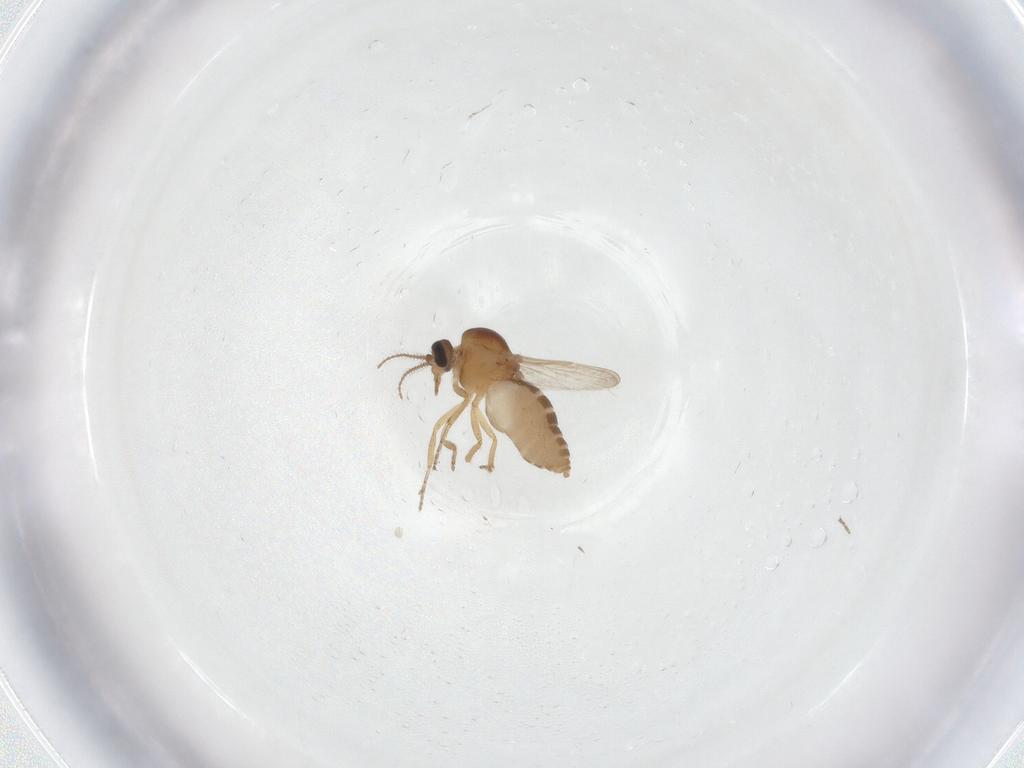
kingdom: Animalia
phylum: Arthropoda
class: Insecta
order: Diptera
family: Ceratopogonidae
